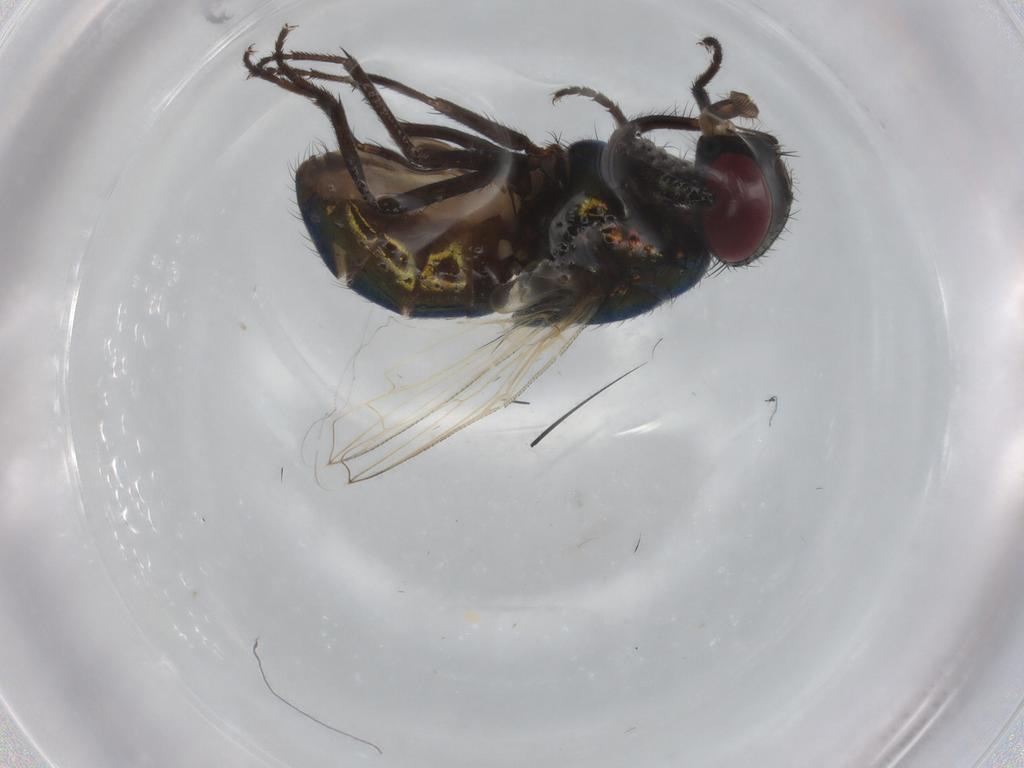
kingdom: Animalia
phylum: Arthropoda
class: Insecta
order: Diptera
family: Muscidae
